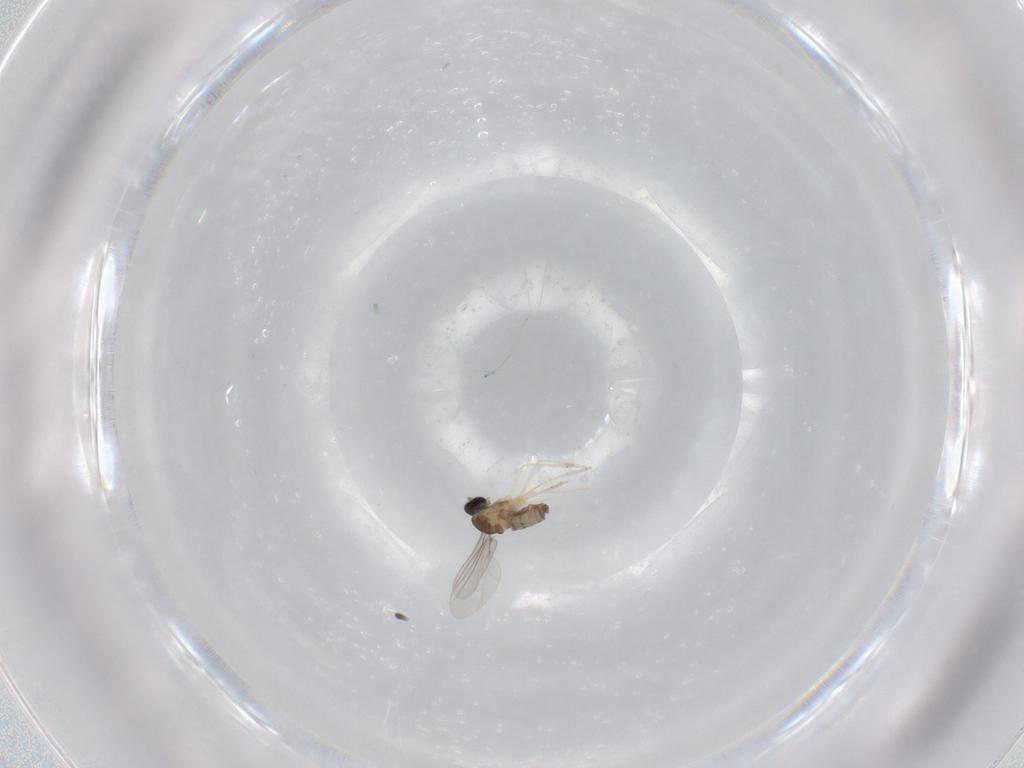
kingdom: Animalia
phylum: Arthropoda
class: Insecta
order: Diptera
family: Cecidomyiidae
